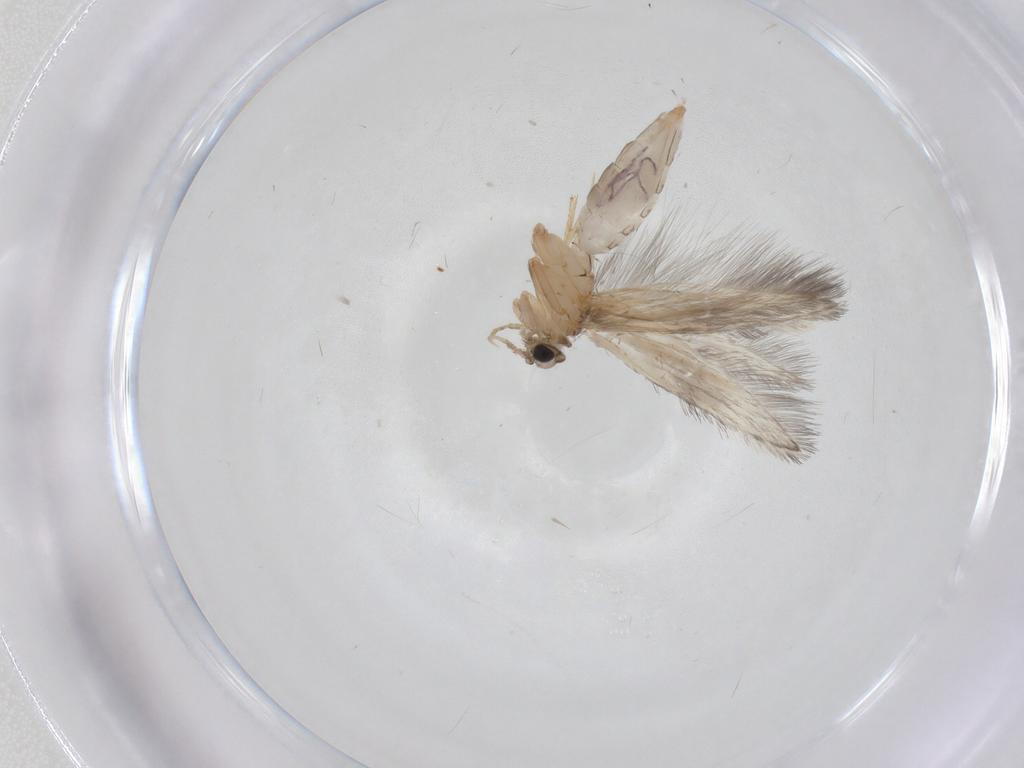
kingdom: Animalia
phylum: Arthropoda
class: Insecta
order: Trichoptera
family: Hydroptilidae
